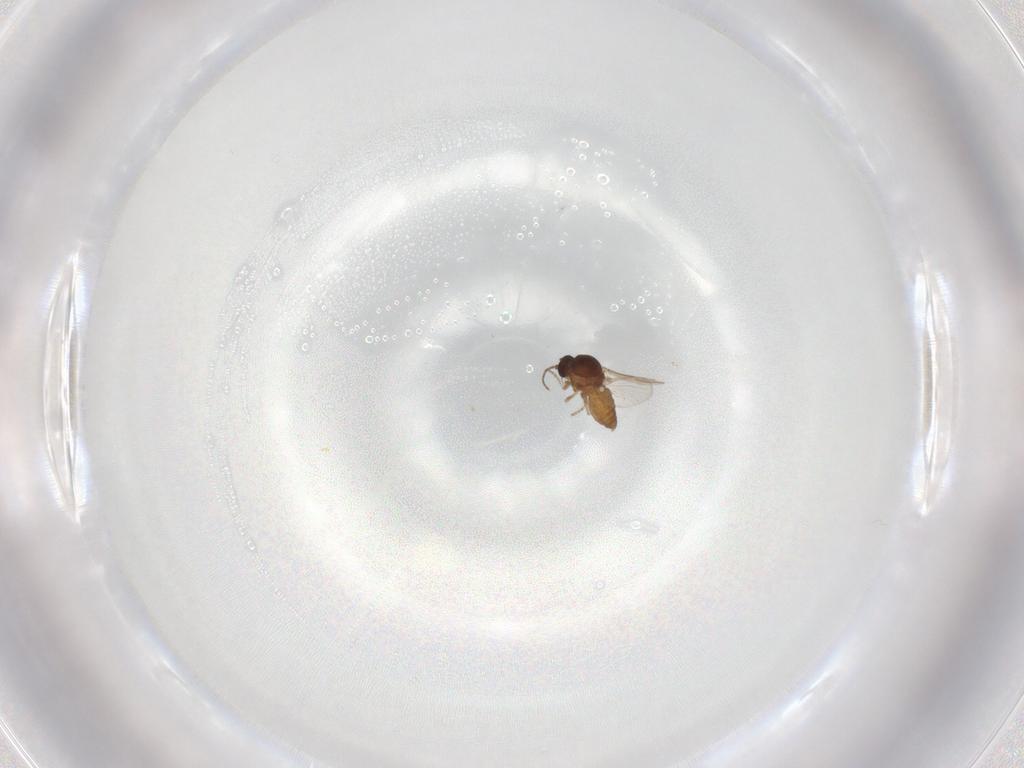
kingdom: Animalia
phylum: Arthropoda
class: Insecta
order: Diptera
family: Ceratopogonidae
